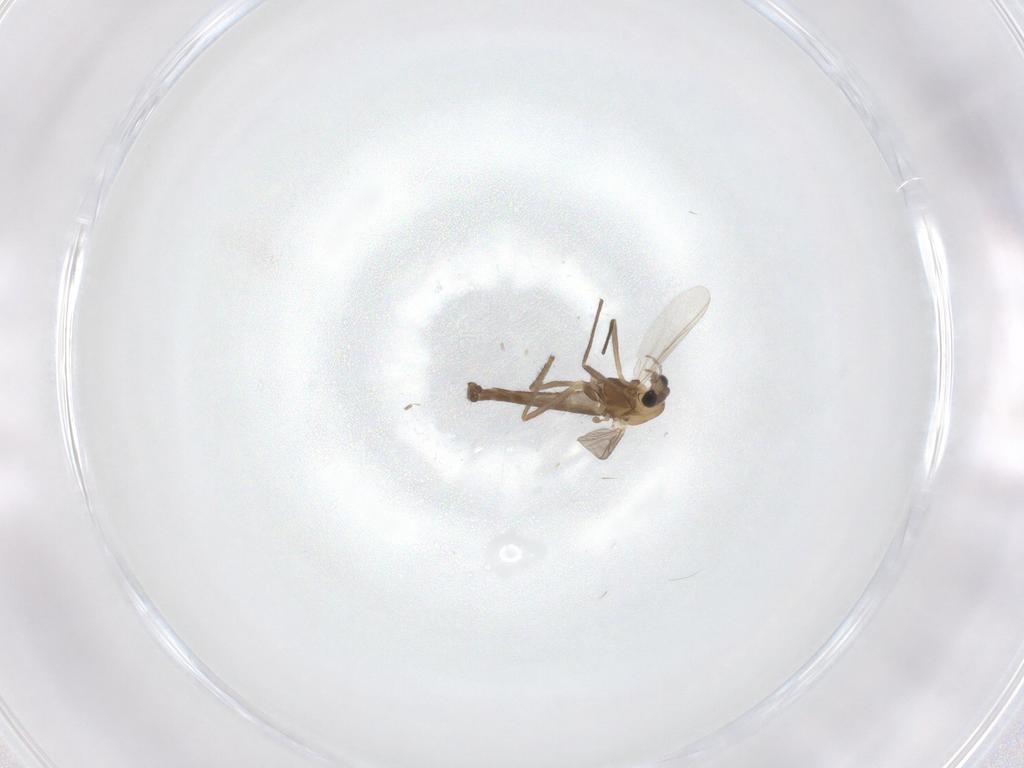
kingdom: Animalia
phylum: Arthropoda
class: Insecta
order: Diptera
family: Chironomidae
